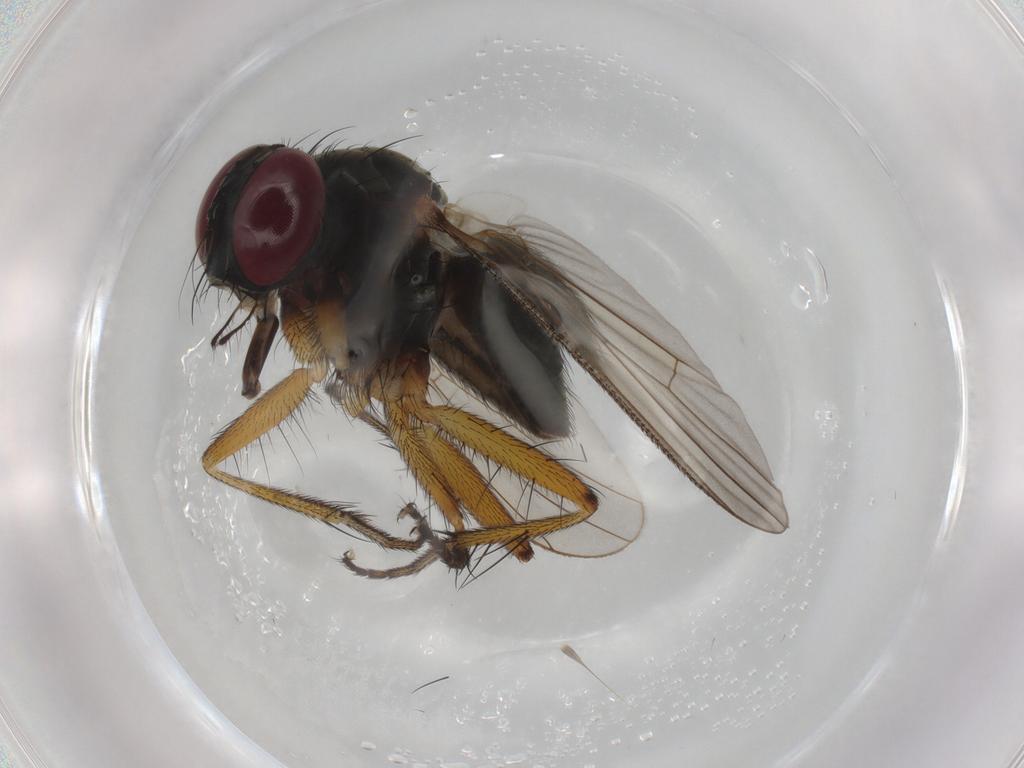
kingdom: Animalia
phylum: Arthropoda
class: Insecta
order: Diptera
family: Muscidae
